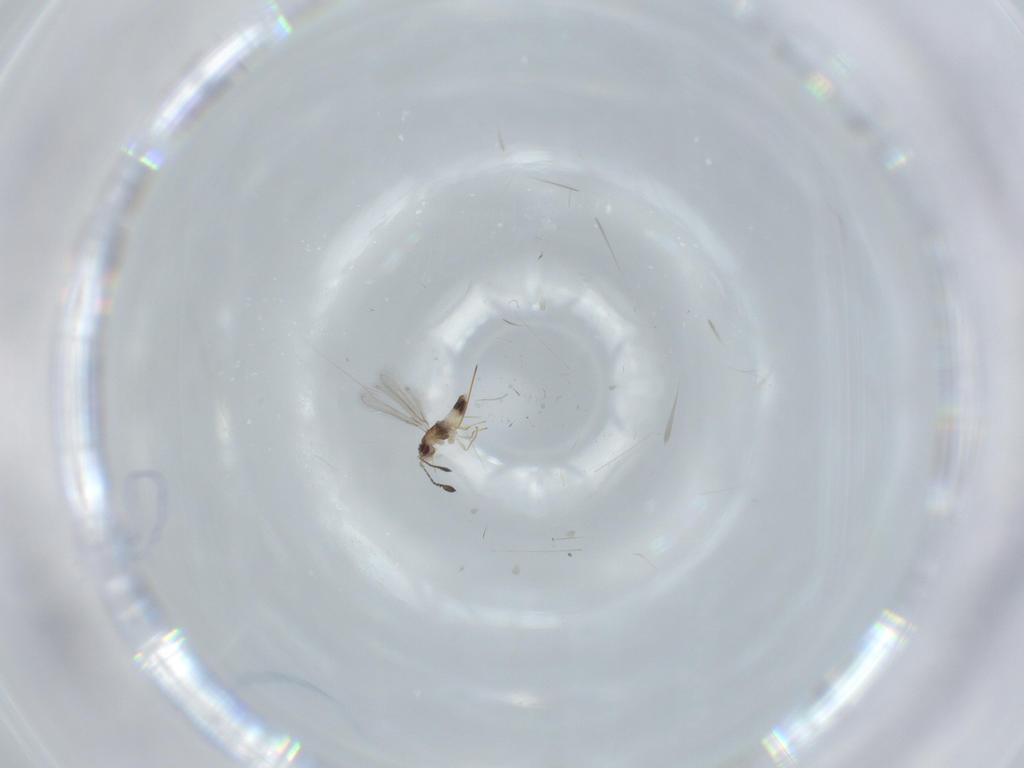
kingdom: Animalia
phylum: Arthropoda
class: Insecta
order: Hymenoptera
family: Mymaridae
